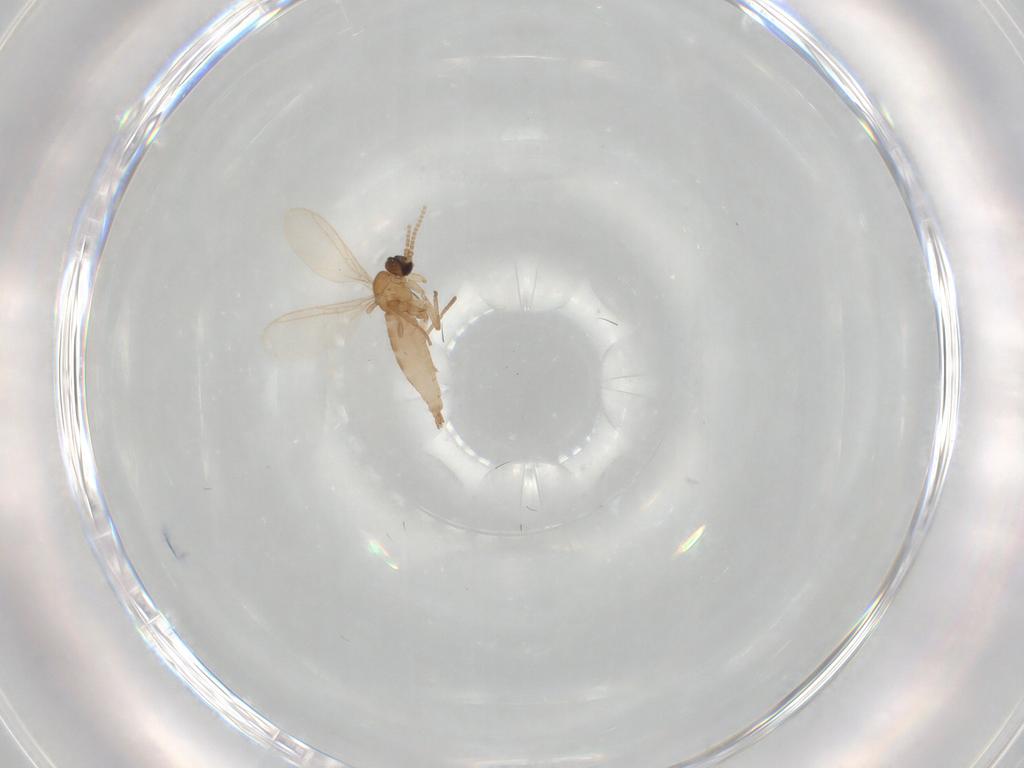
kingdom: Animalia
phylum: Arthropoda
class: Insecta
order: Diptera
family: Sciaridae
